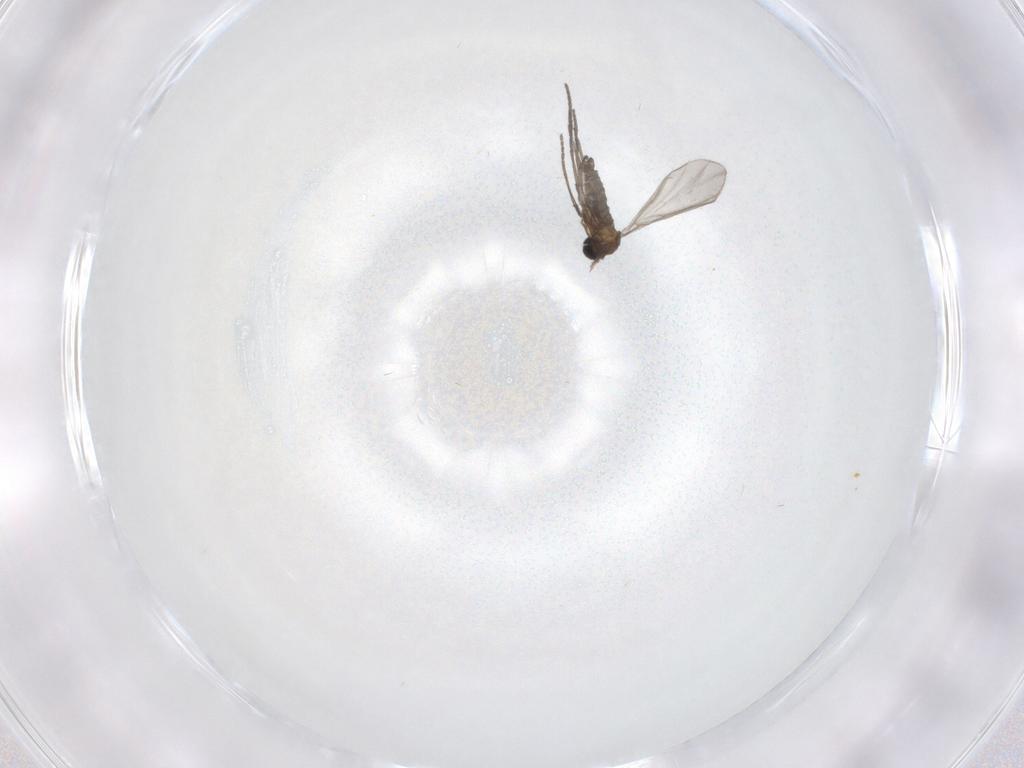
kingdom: Animalia
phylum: Arthropoda
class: Insecta
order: Diptera
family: Sciaridae
